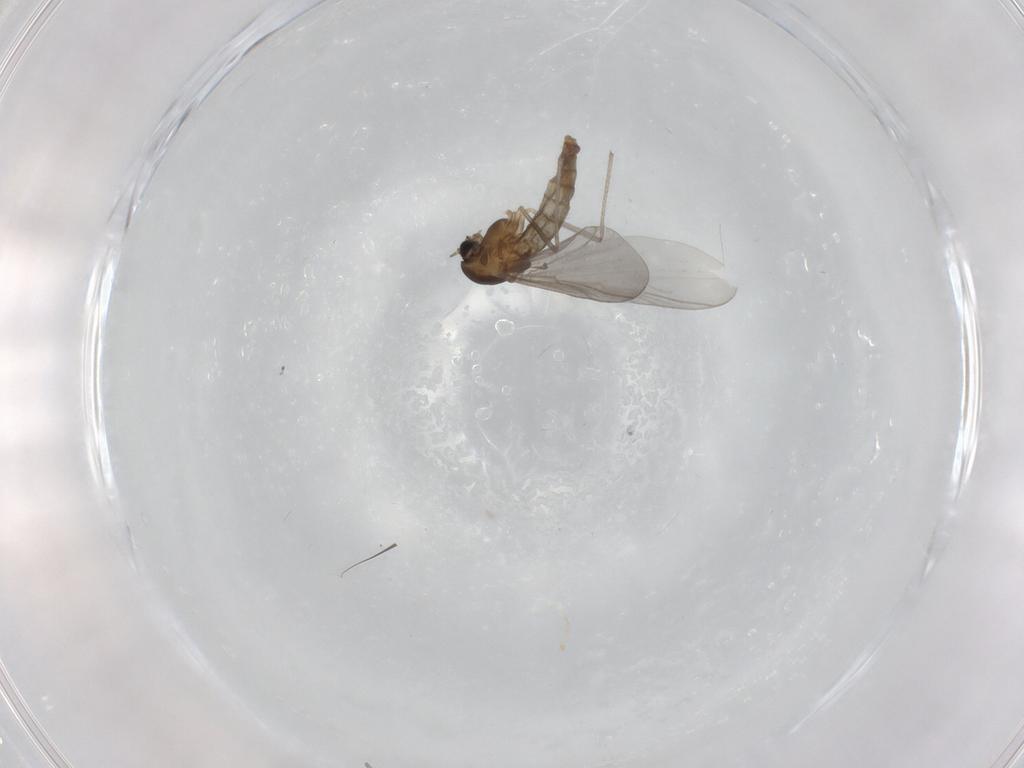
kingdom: Animalia
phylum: Arthropoda
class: Insecta
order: Diptera
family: Chironomidae
